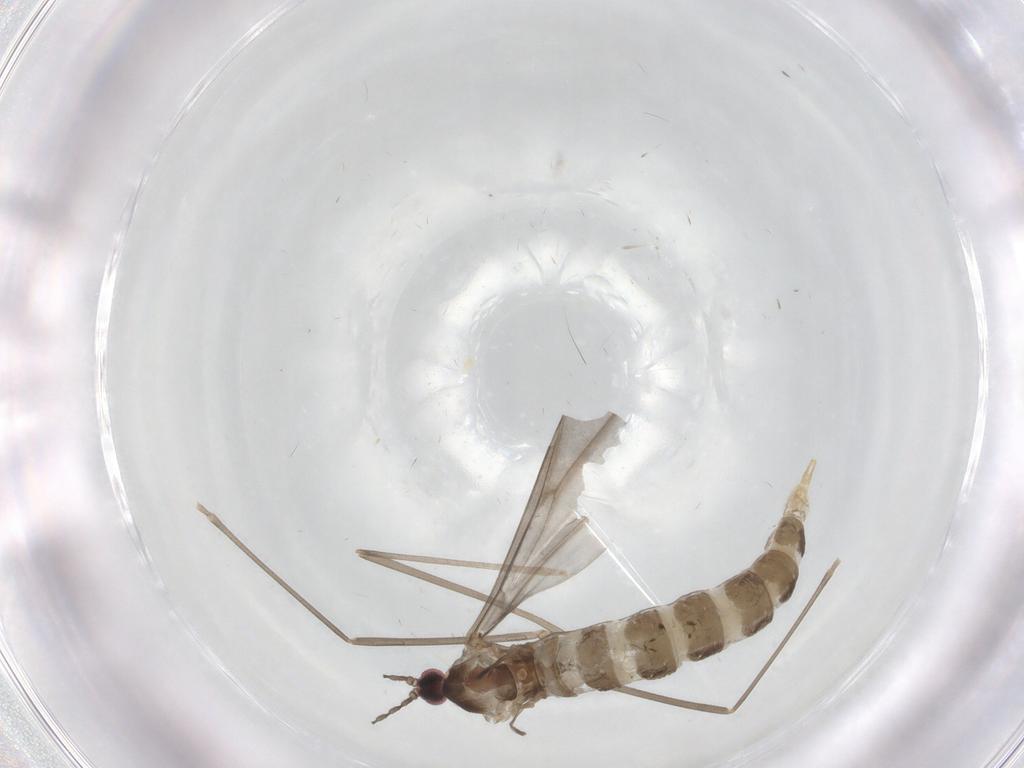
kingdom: Animalia
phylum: Arthropoda
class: Insecta
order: Diptera
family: Sciaridae
